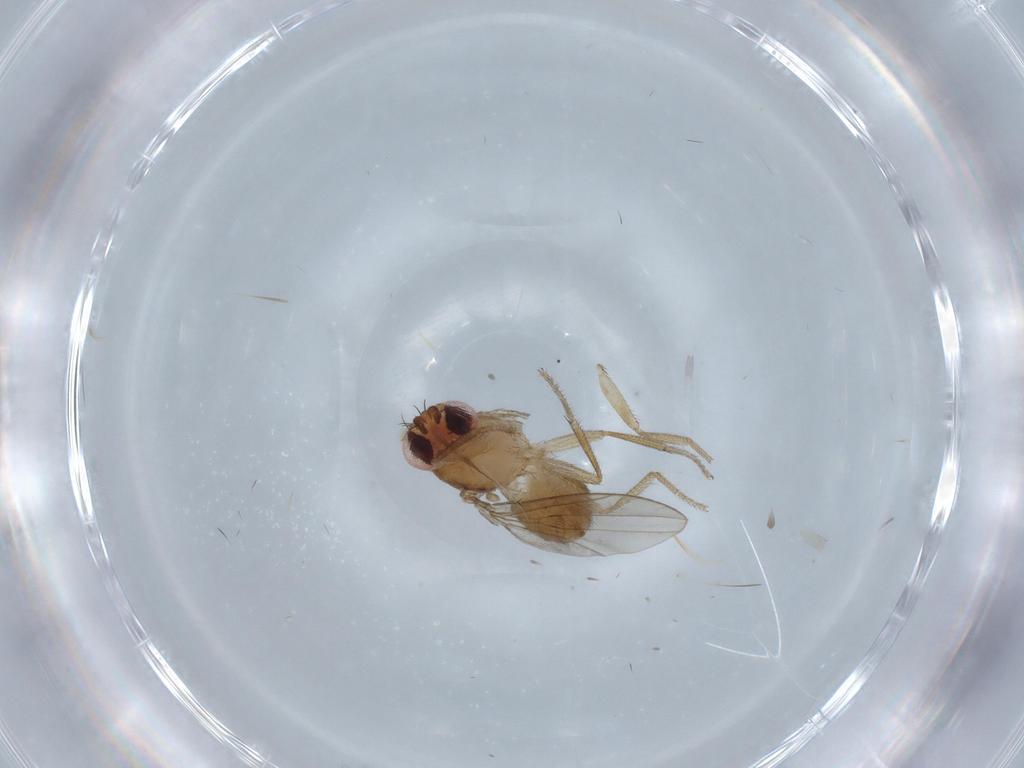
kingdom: Animalia
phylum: Arthropoda
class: Insecta
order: Diptera
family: Drosophilidae
